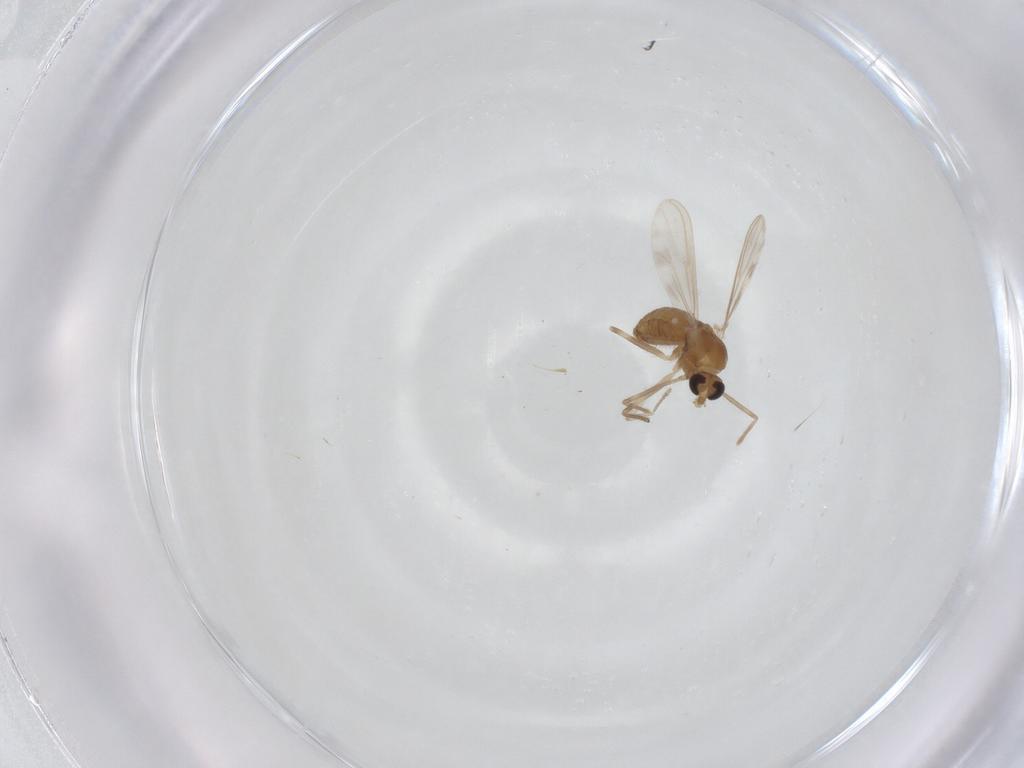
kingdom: Animalia
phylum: Arthropoda
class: Insecta
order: Diptera
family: Chironomidae
